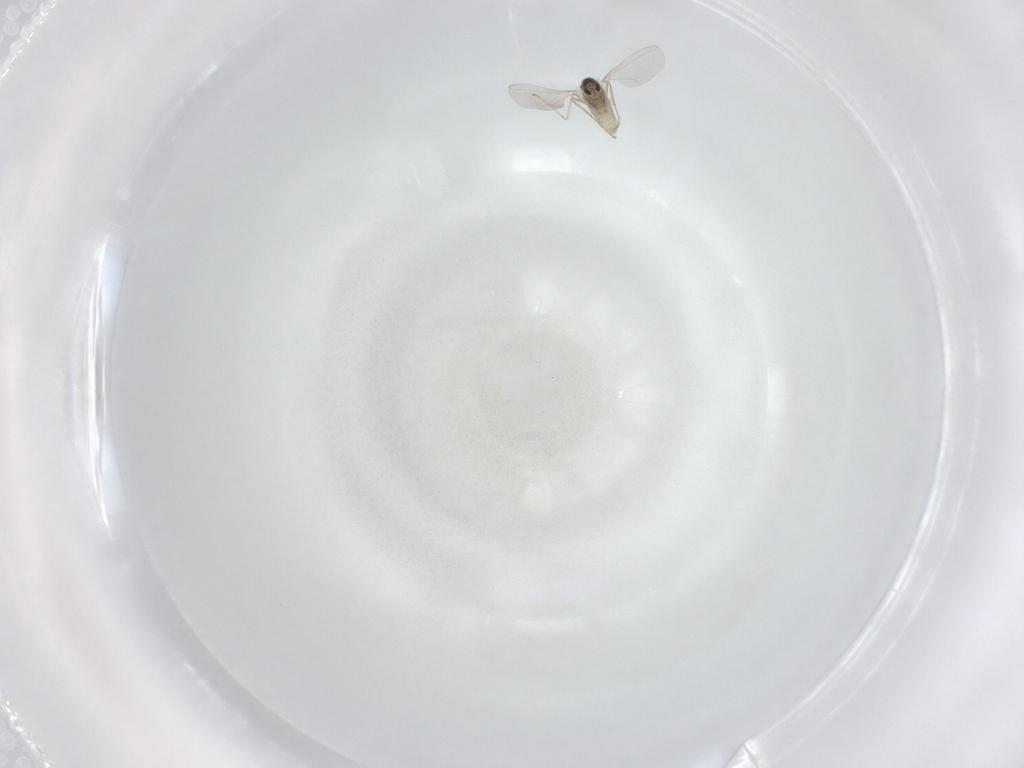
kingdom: Animalia
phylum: Arthropoda
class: Insecta
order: Diptera
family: Cecidomyiidae
